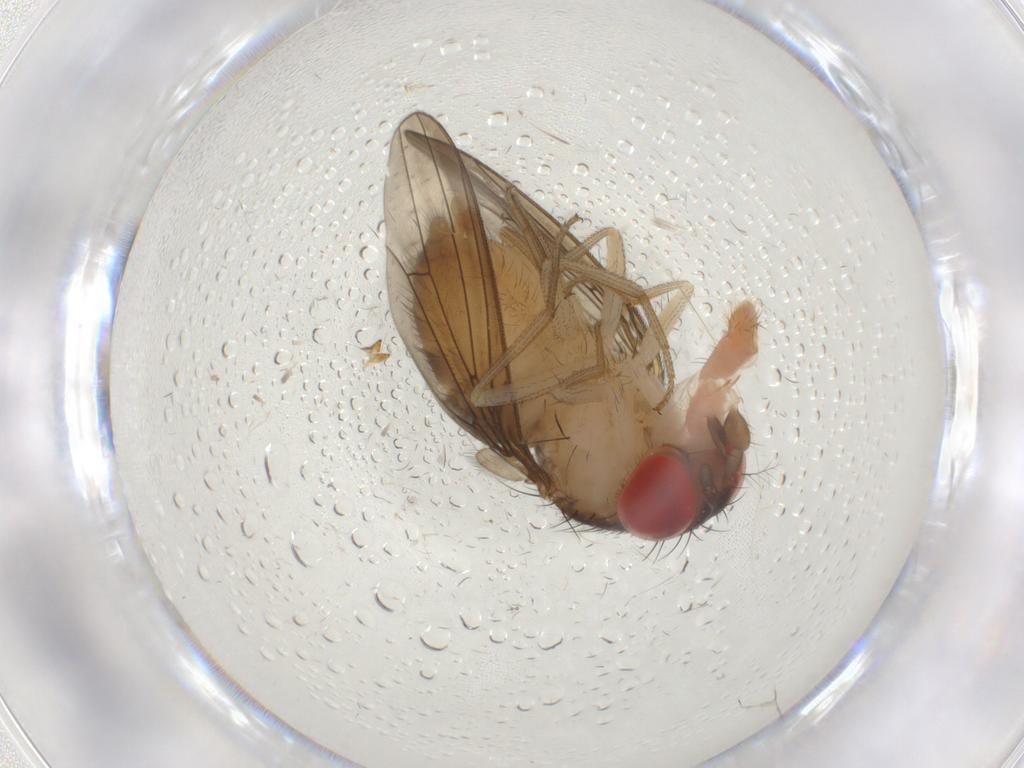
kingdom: Animalia
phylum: Arthropoda
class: Insecta
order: Diptera
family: Drosophilidae
